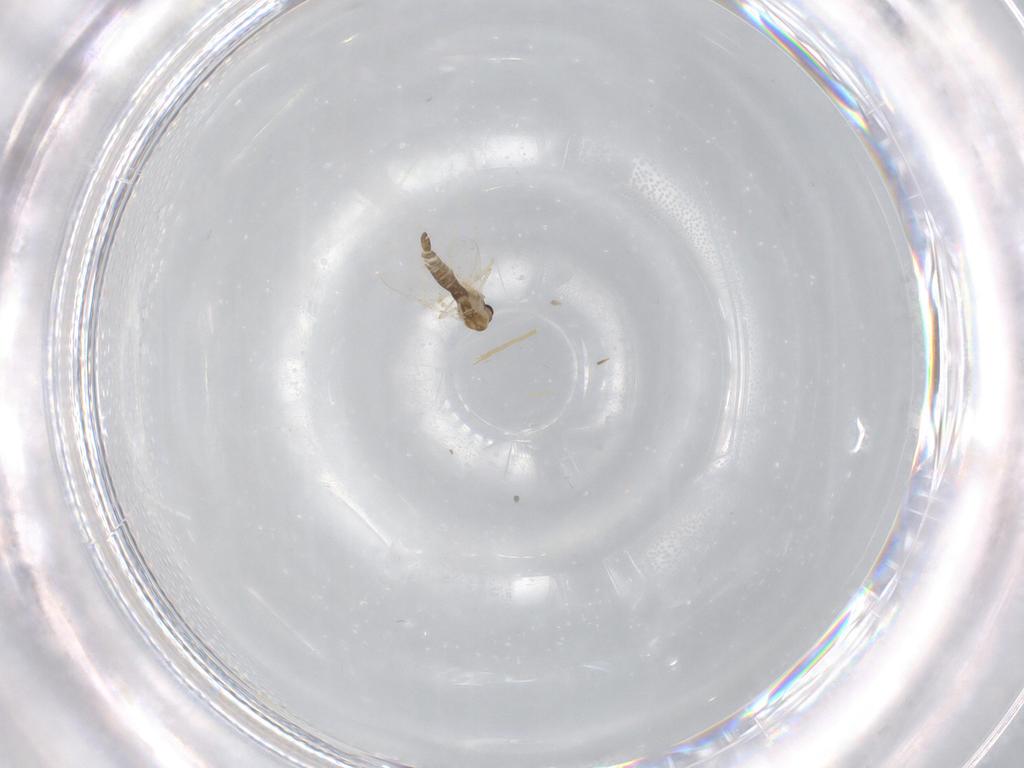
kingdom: Animalia
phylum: Arthropoda
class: Insecta
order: Diptera
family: Chironomidae
